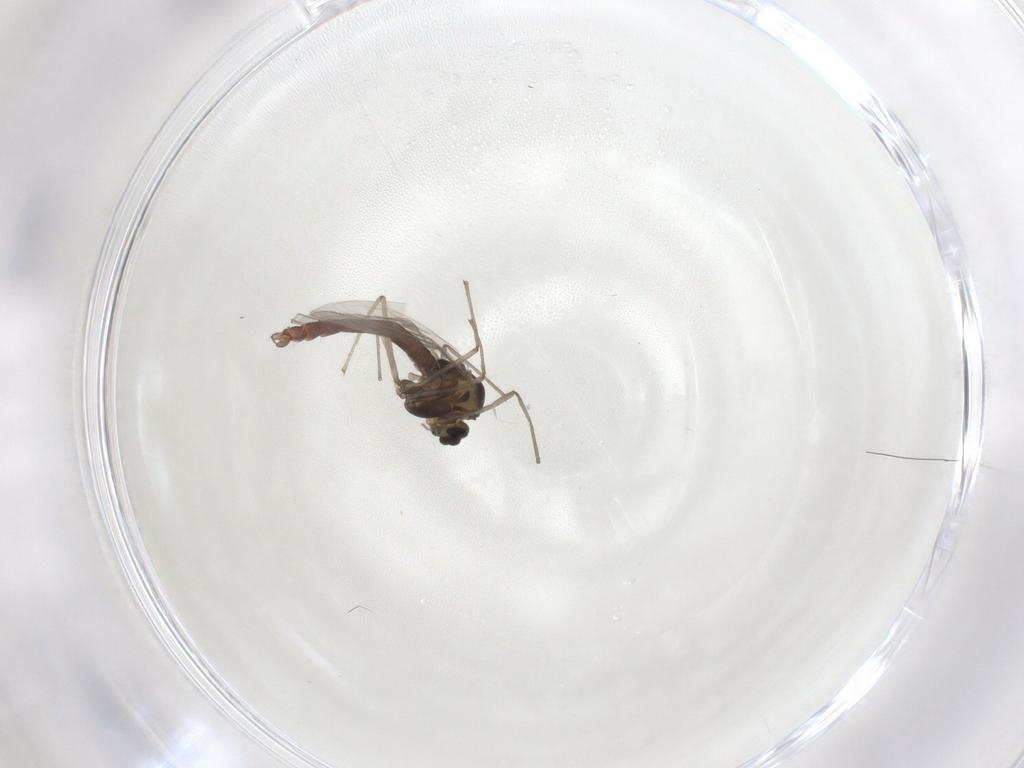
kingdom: Animalia
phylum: Arthropoda
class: Insecta
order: Diptera
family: Chironomidae
